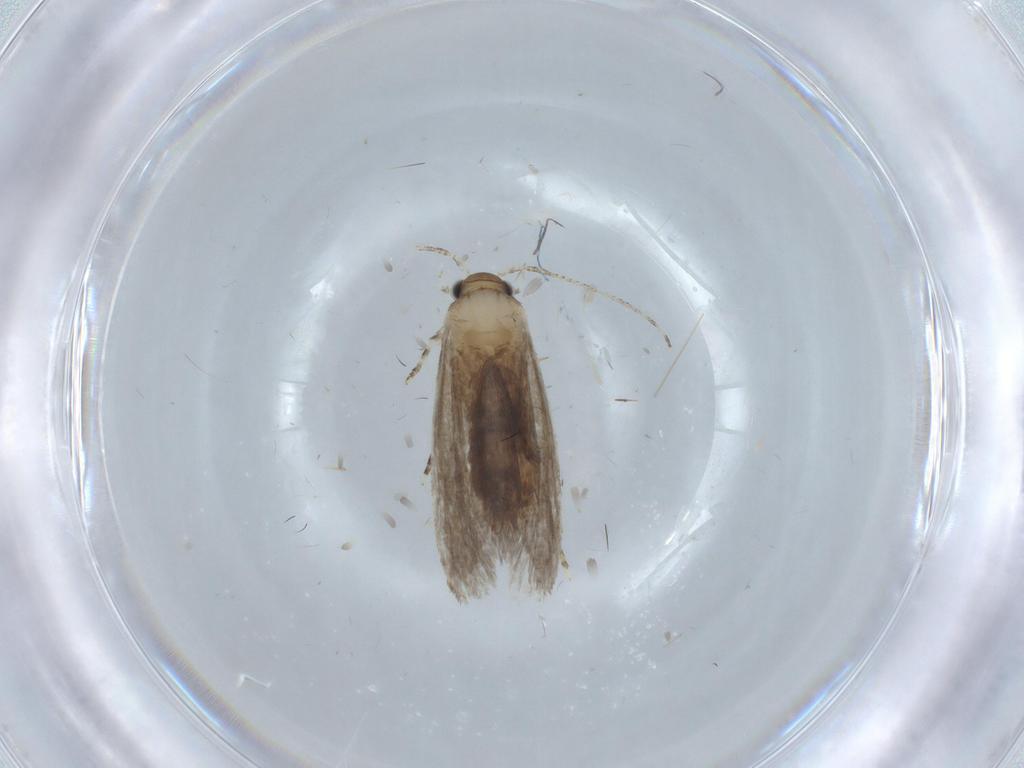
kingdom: Animalia
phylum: Arthropoda
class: Insecta
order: Lepidoptera
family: Tineidae
